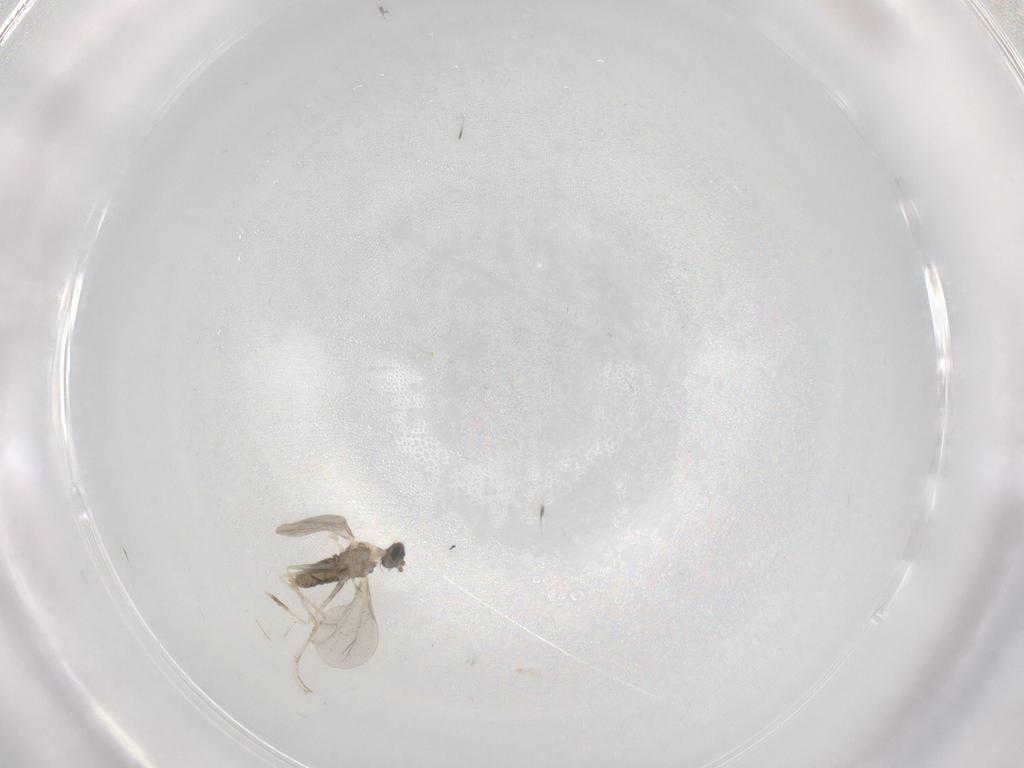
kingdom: Animalia
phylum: Arthropoda
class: Insecta
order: Diptera
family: Cecidomyiidae
